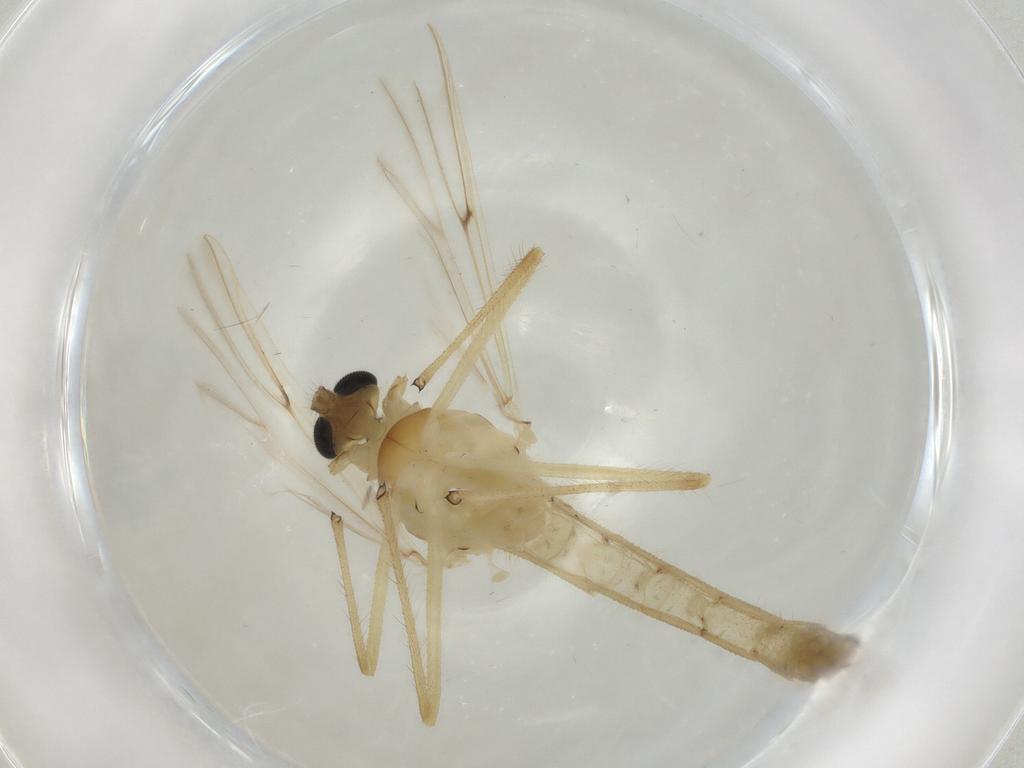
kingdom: Animalia
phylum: Arthropoda
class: Insecta
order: Diptera
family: Muscidae
